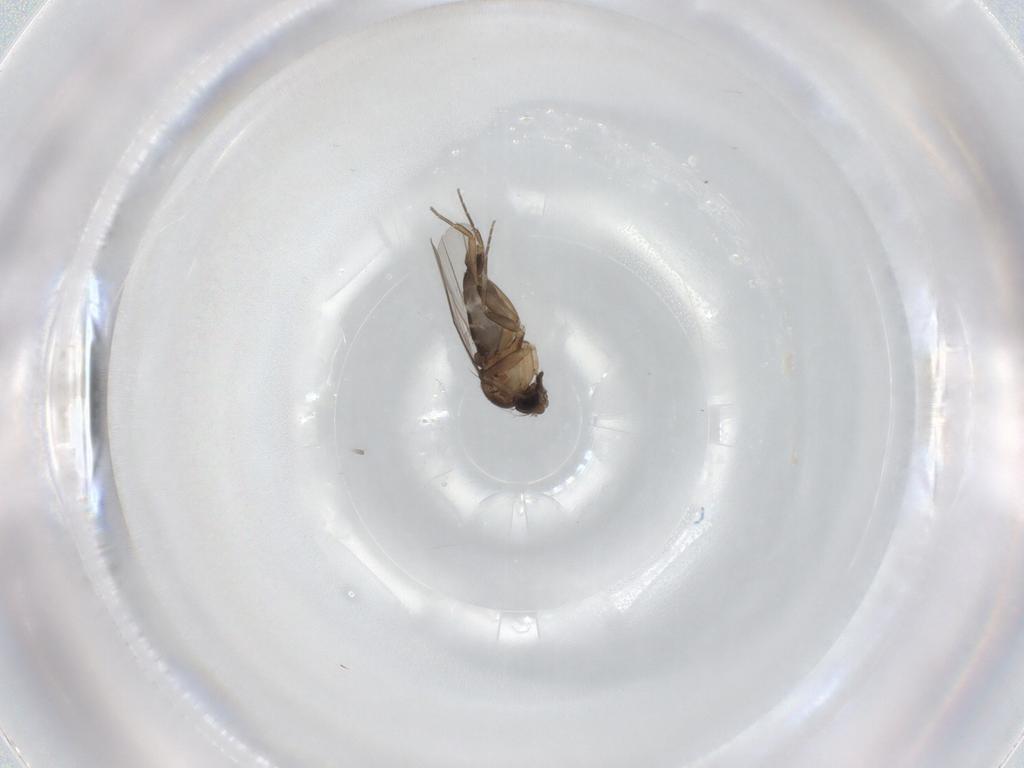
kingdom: Animalia
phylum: Arthropoda
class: Insecta
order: Diptera
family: Phoridae
